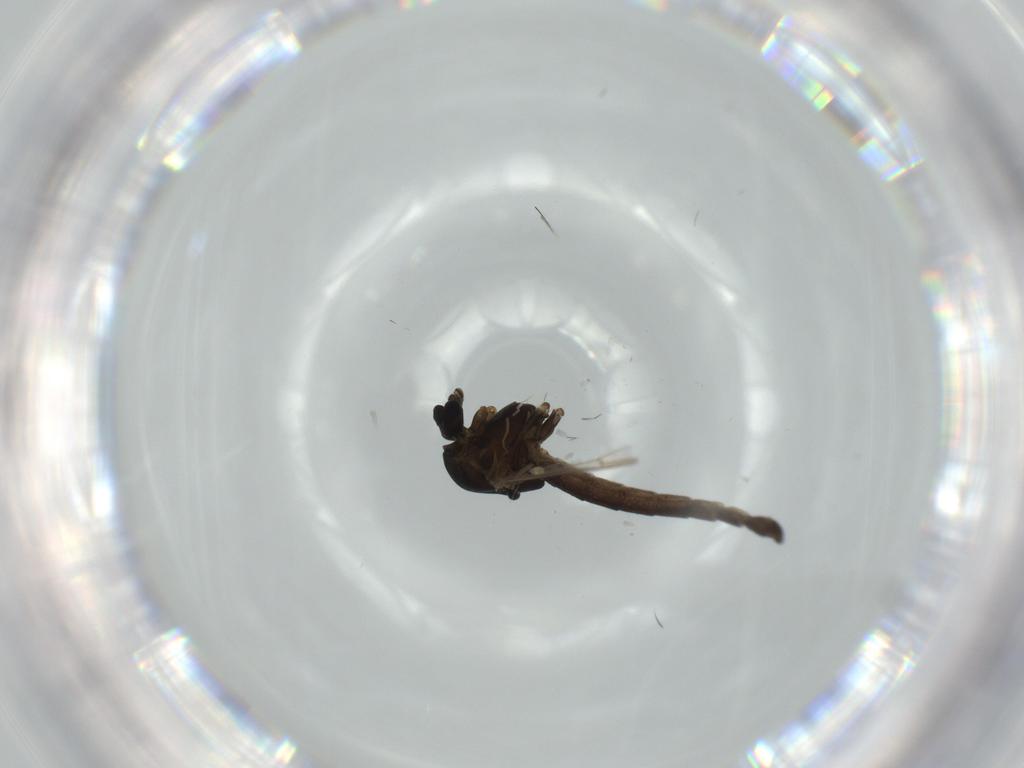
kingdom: Animalia
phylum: Arthropoda
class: Insecta
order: Diptera
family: Chironomidae
